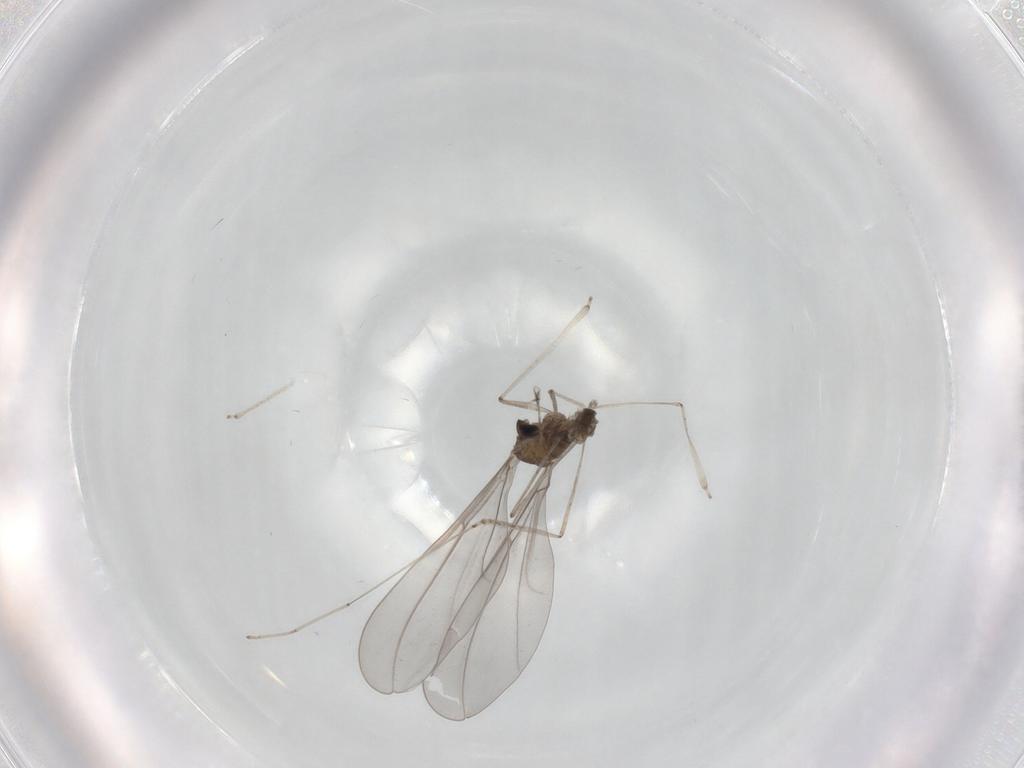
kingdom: Animalia
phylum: Arthropoda
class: Insecta
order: Diptera
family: Cecidomyiidae
